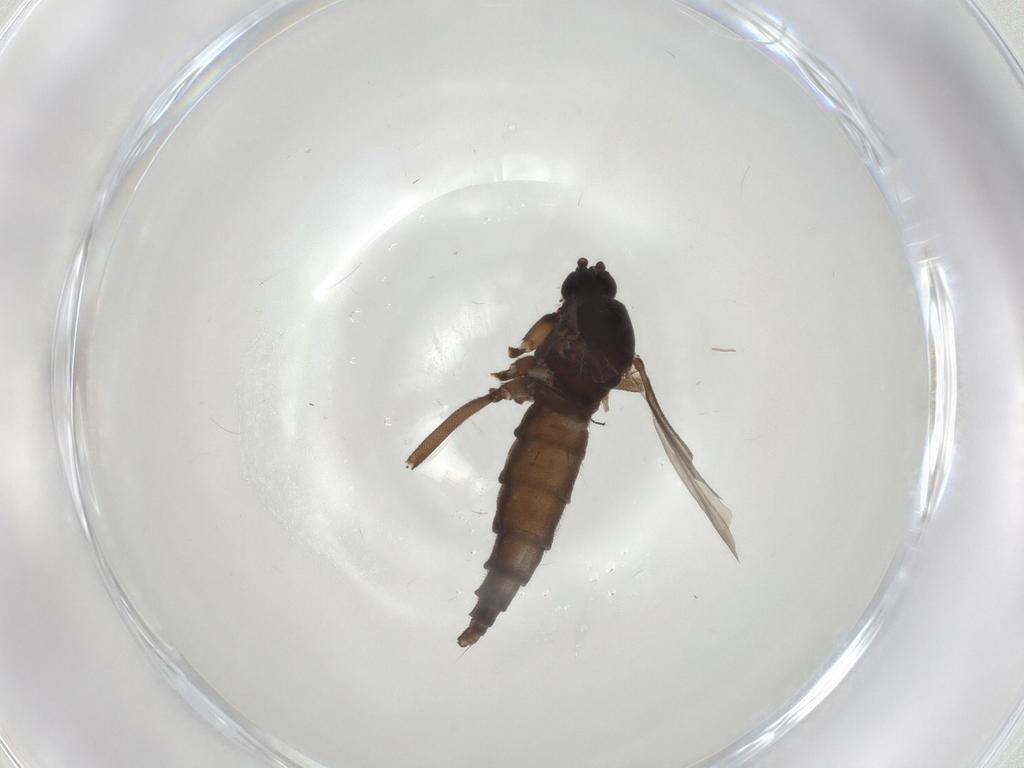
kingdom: Animalia
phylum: Arthropoda
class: Insecta
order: Diptera
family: Sciaridae
